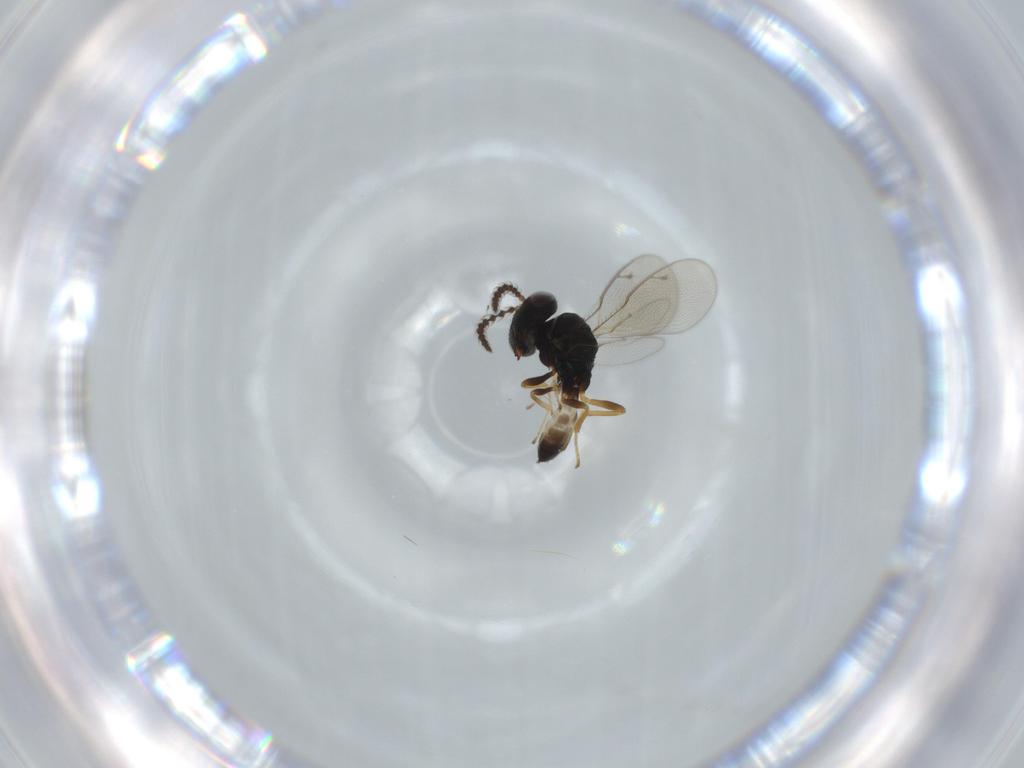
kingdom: Animalia
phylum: Arthropoda
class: Insecta
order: Hymenoptera
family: Pteromalidae
